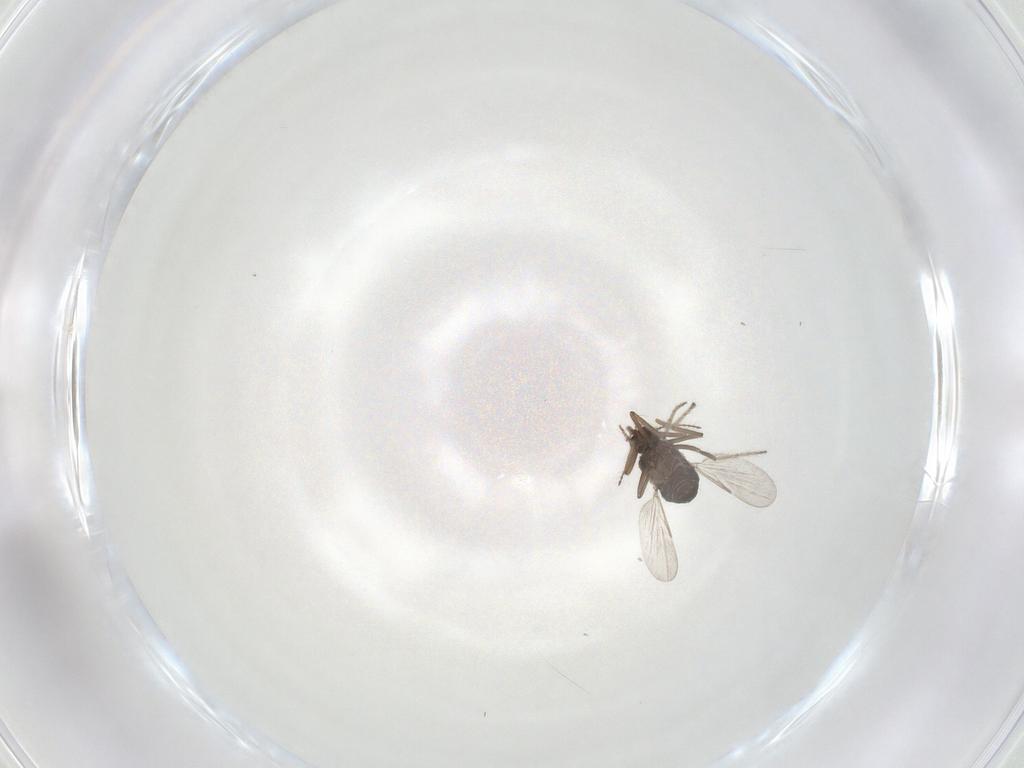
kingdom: Animalia
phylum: Arthropoda
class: Insecta
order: Diptera
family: Ceratopogonidae
